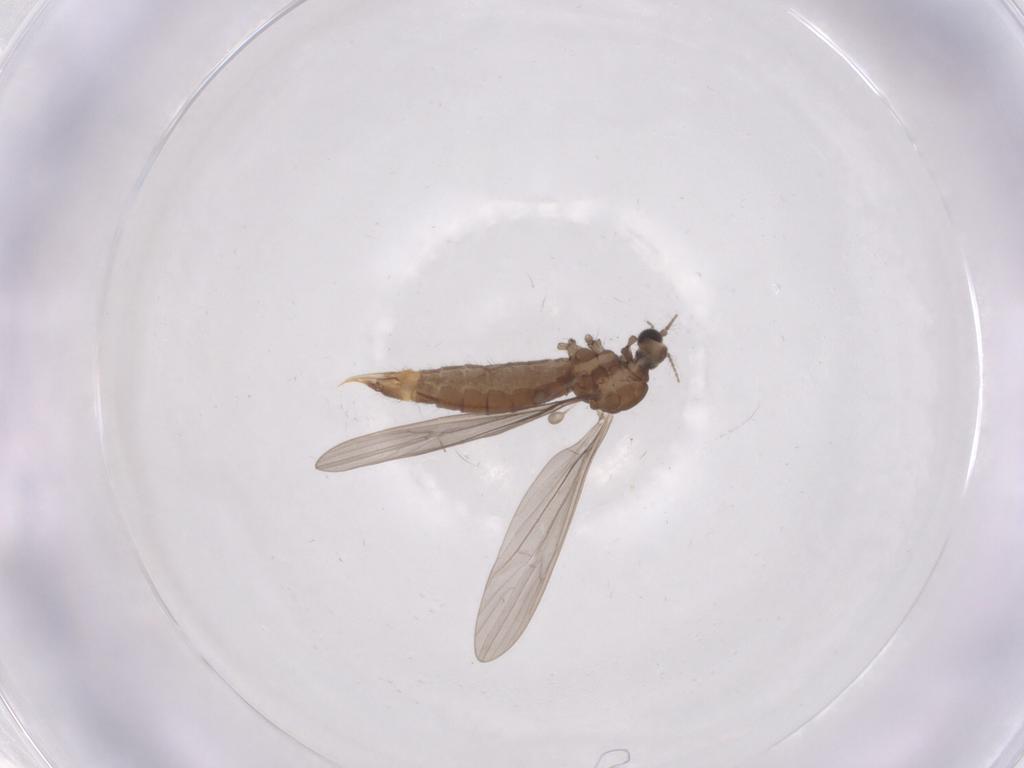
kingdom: Animalia
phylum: Arthropoda
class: Insecta
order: Diptera
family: Limoniidae
